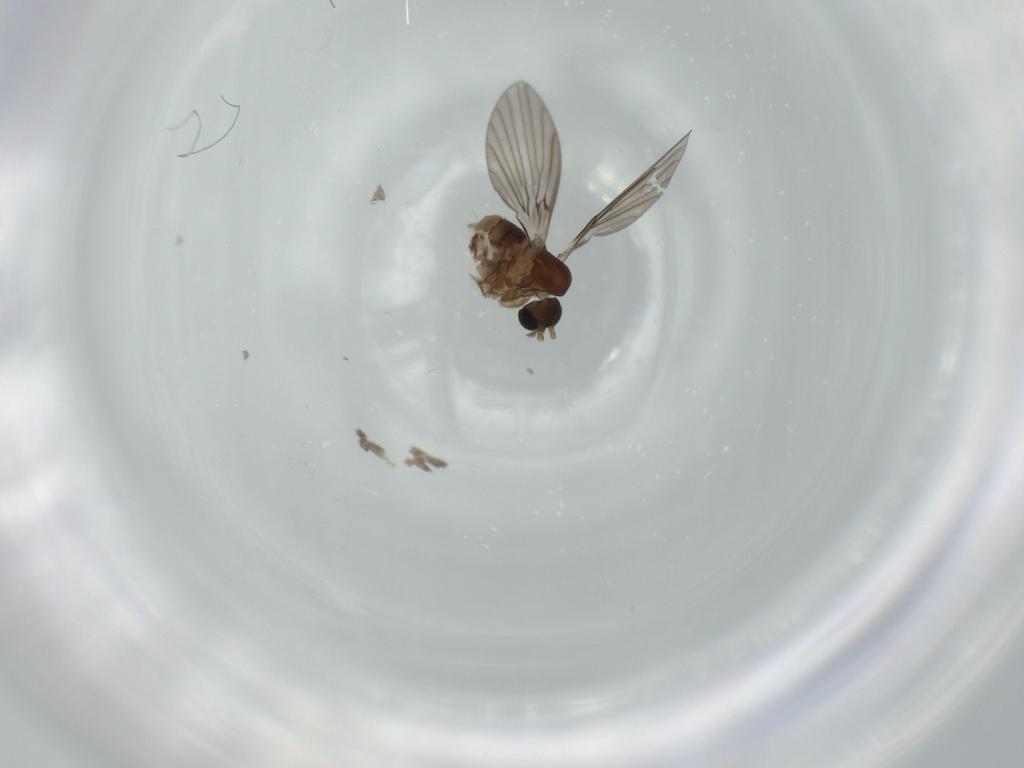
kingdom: Animalia
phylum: Arthropoda
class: Insecta
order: Diptera
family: Psychodidae
